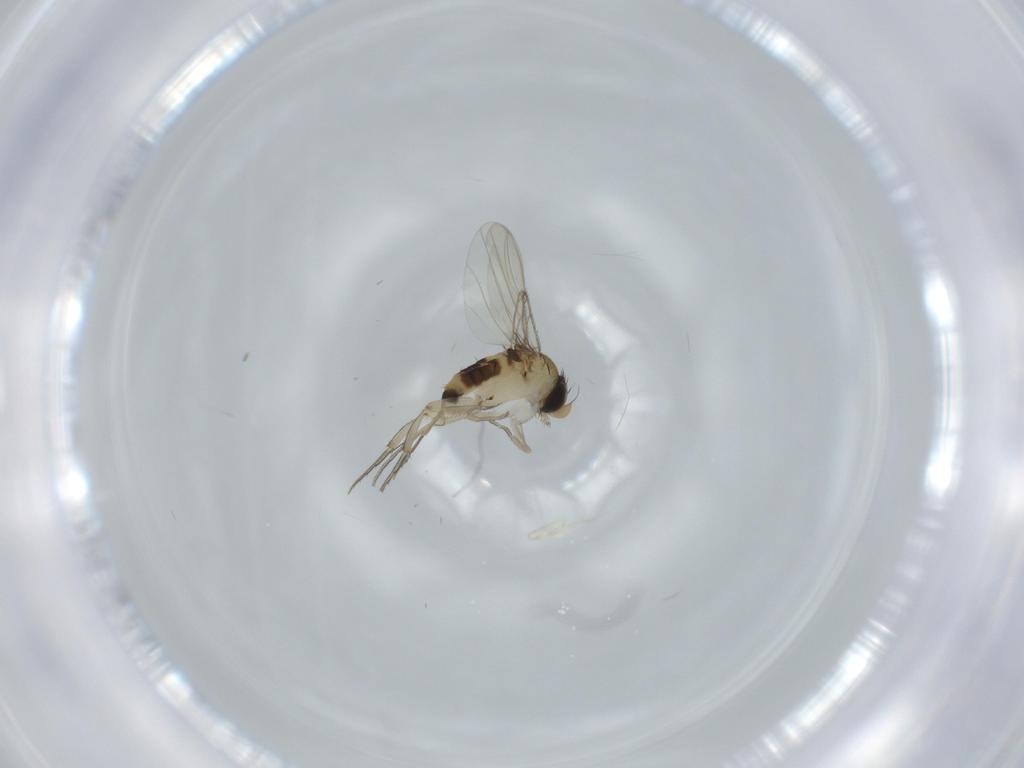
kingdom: Animalia
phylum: Arthropoda
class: Insecta
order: Diptera
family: Phoridae
